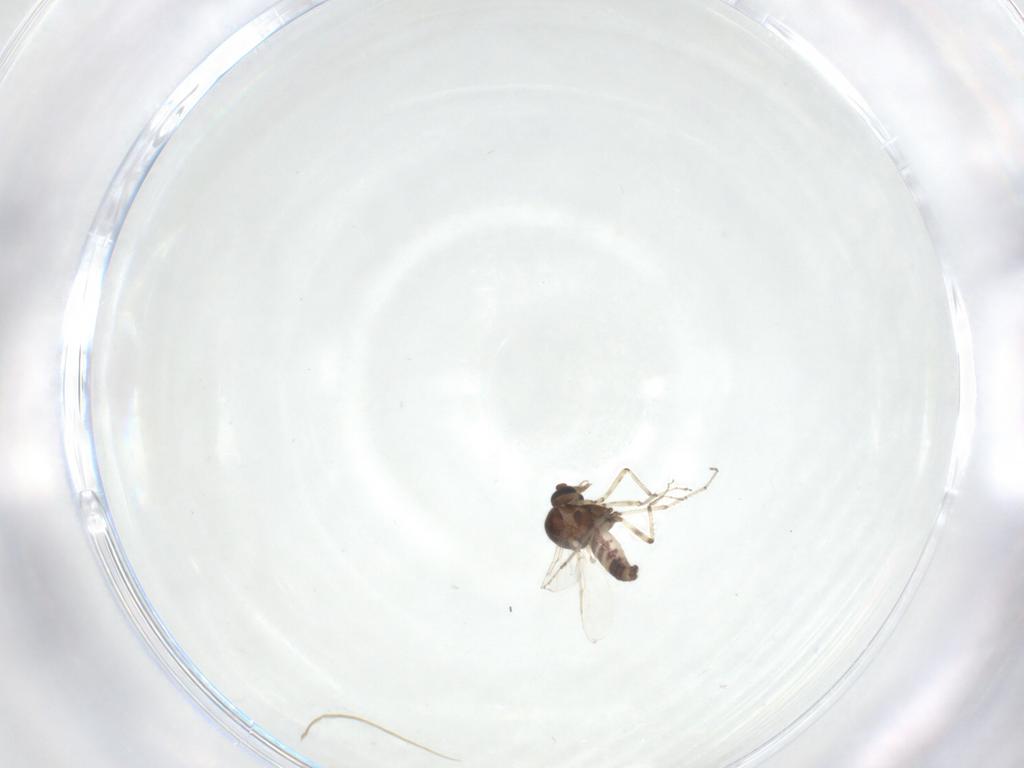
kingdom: Animalia
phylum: Arthropoda
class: Insecta
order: Diptera
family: Ceratopogonidae
